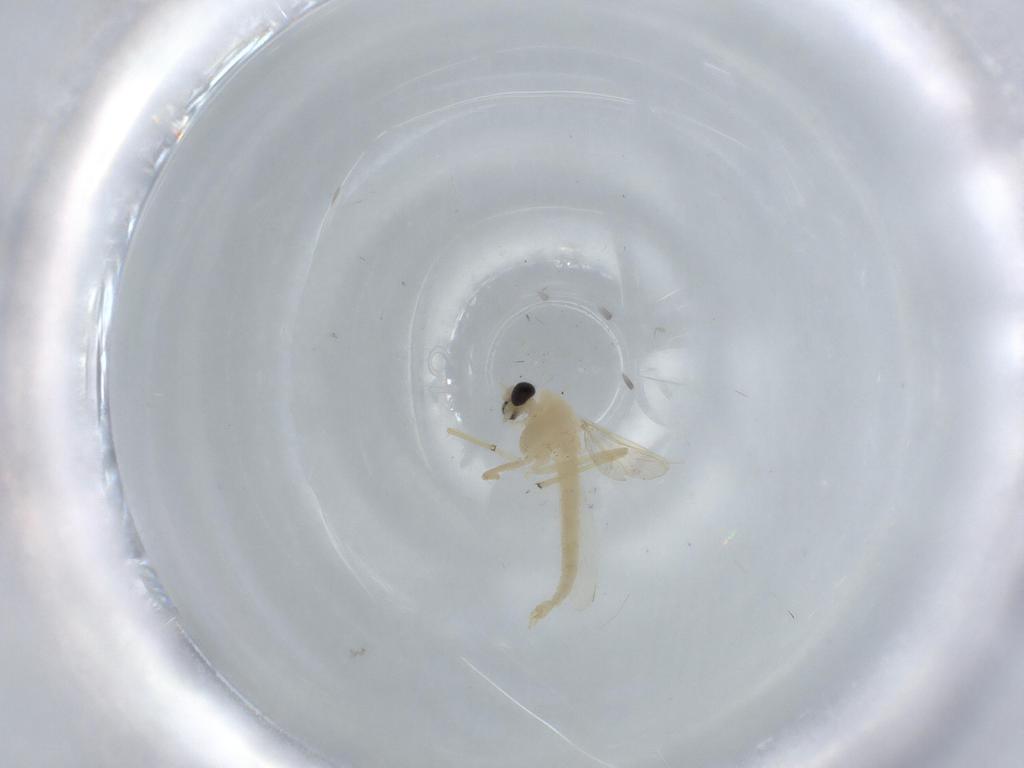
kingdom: Animalia
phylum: Arthropoda
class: Insecta
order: Diptera
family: Chironomidae
